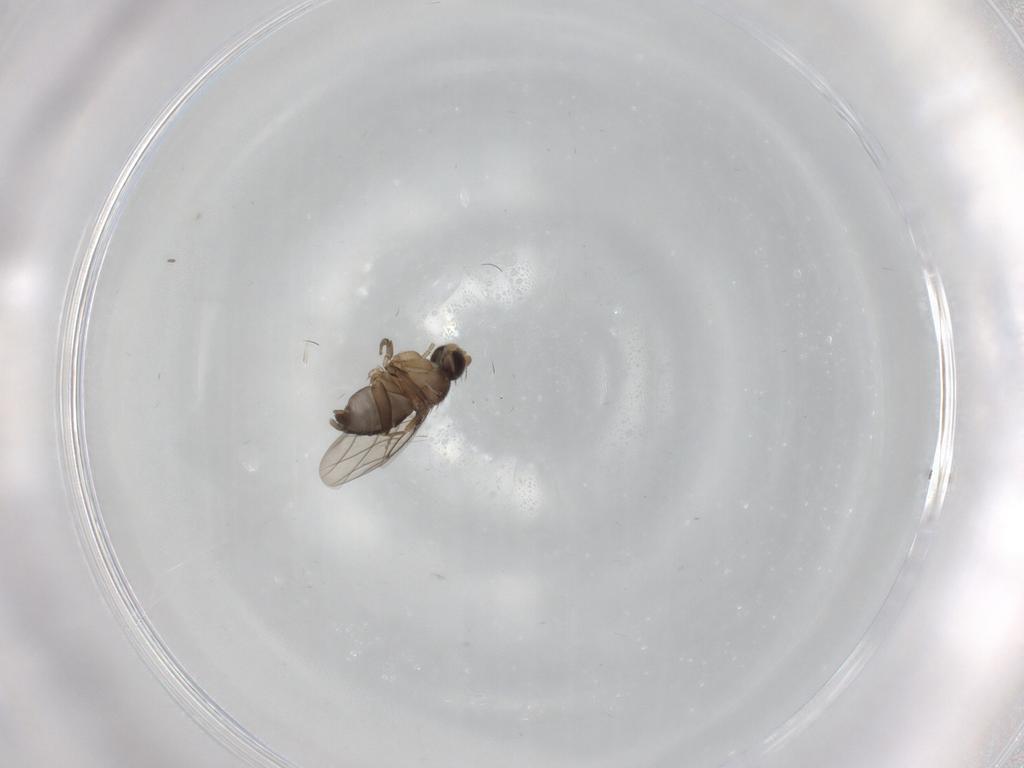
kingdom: Animalia
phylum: Arthropoda
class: Insecta
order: Diptera
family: Phoridae
